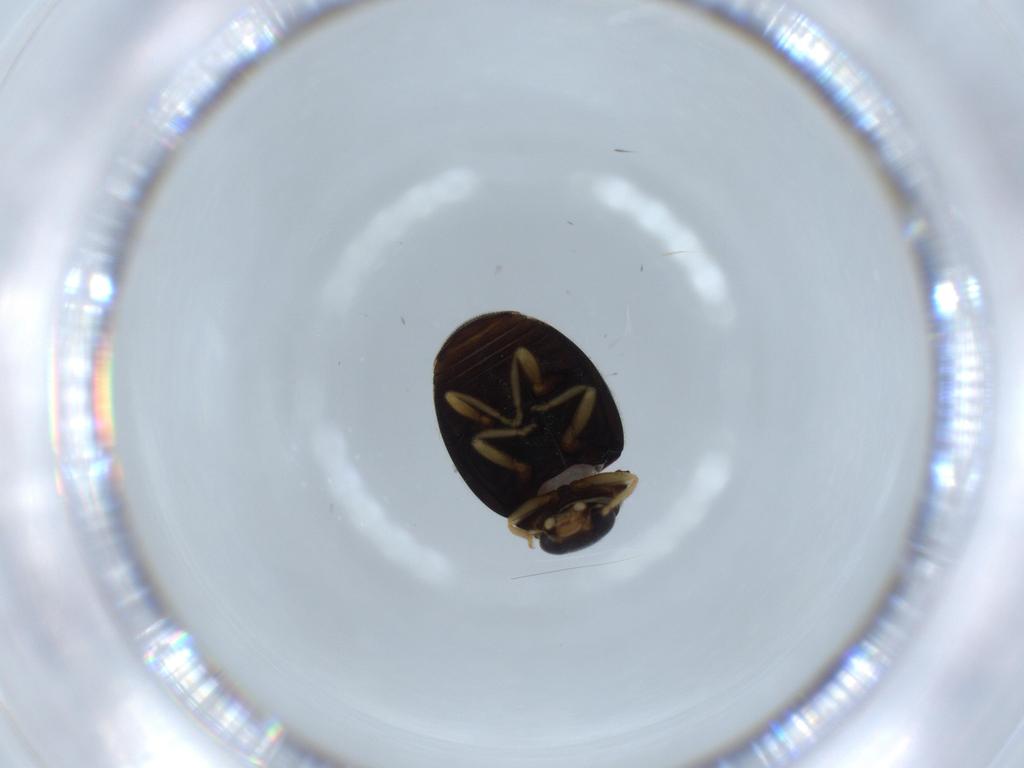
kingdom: Animalia
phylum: Arthropoda
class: Insecta
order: Coleoptera
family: Coccinellidae
